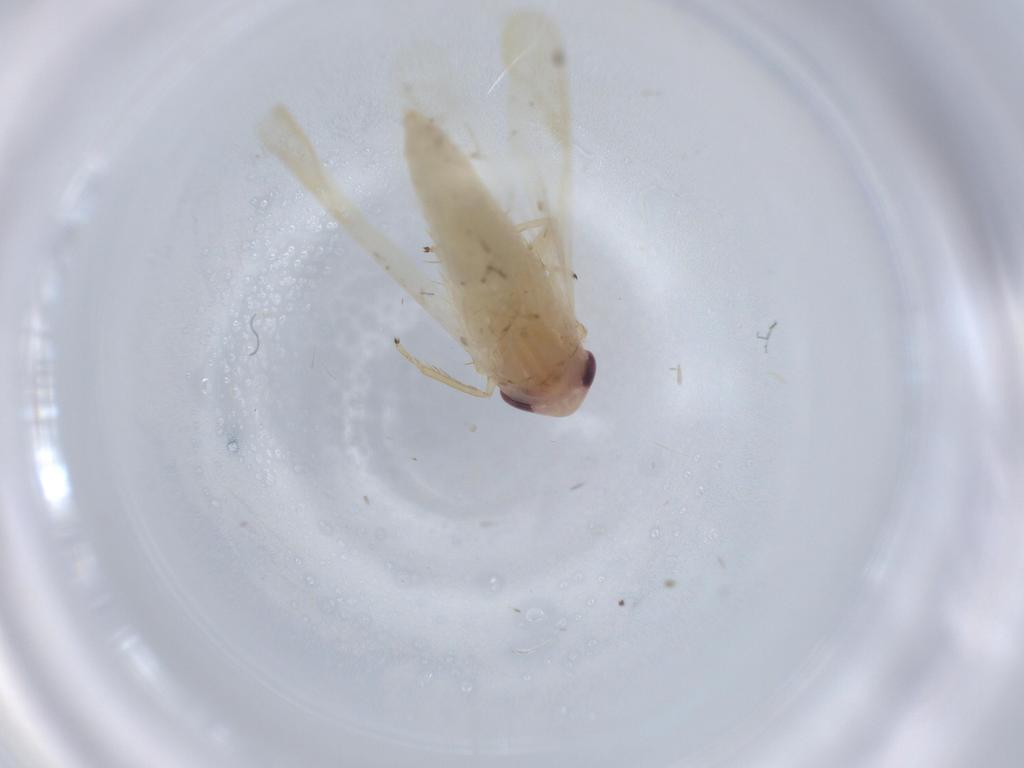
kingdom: Animalia
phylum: Arthropoda
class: Insecta
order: Hemiptera
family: Cicadellidae
